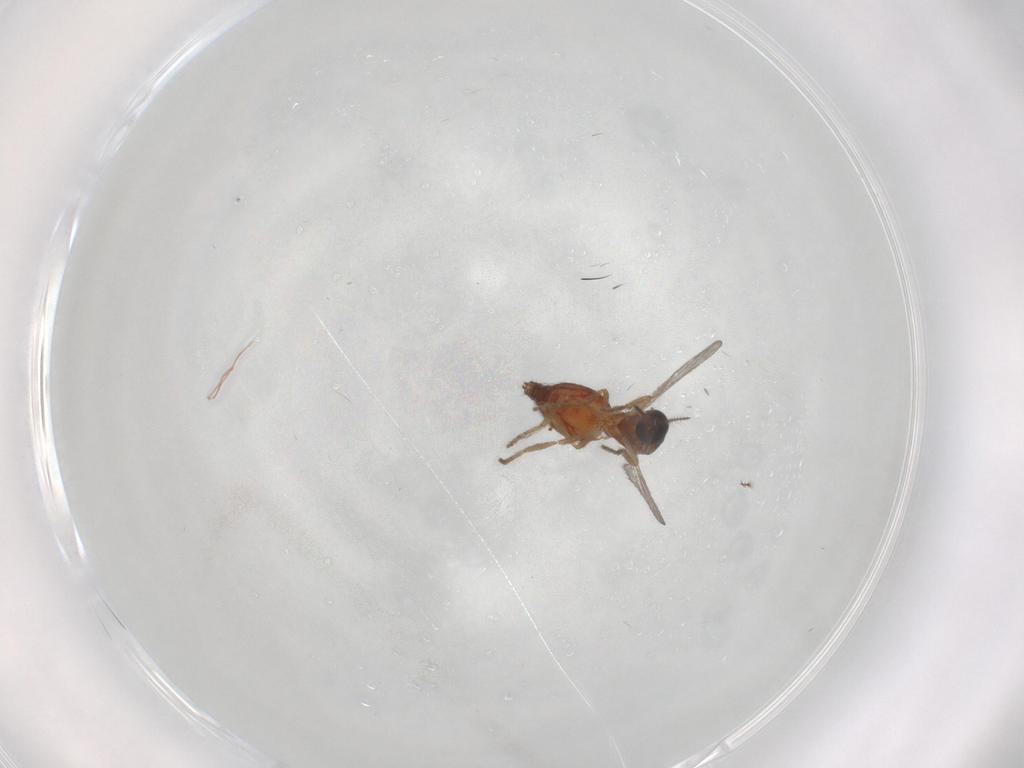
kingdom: Animalia
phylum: Arthropoda
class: Insecta
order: Diptera
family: Ceratopogonidae
